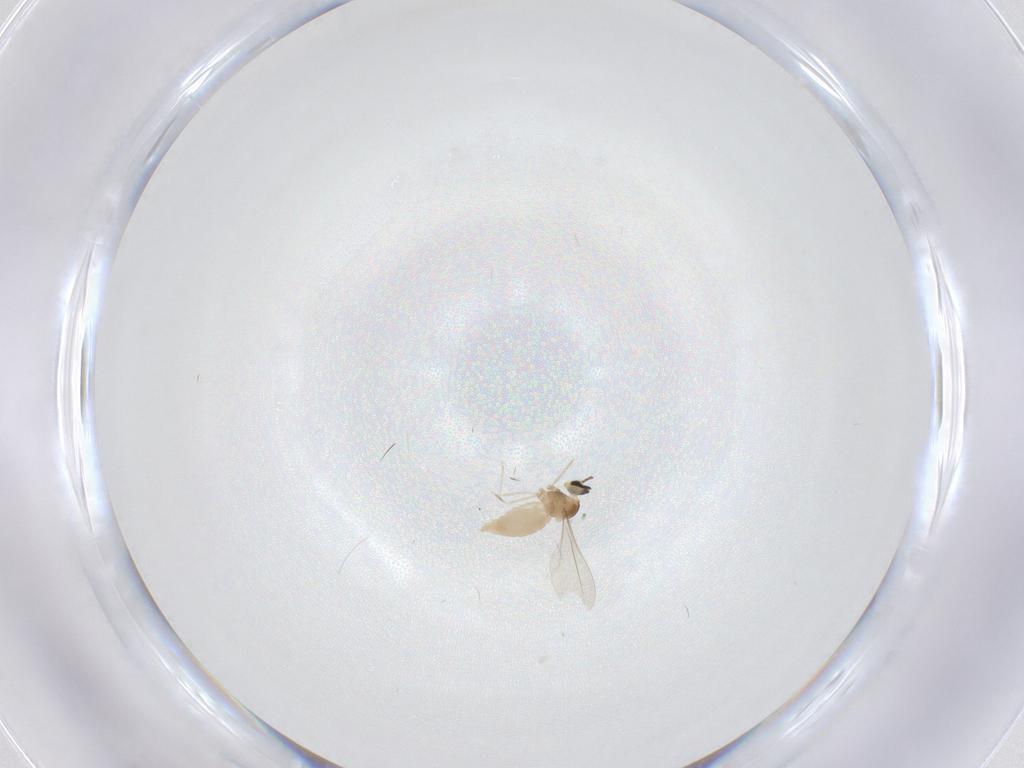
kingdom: Animalia
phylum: Arthropoda
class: Insecta
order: Diptera
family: Cecidomyiidae
